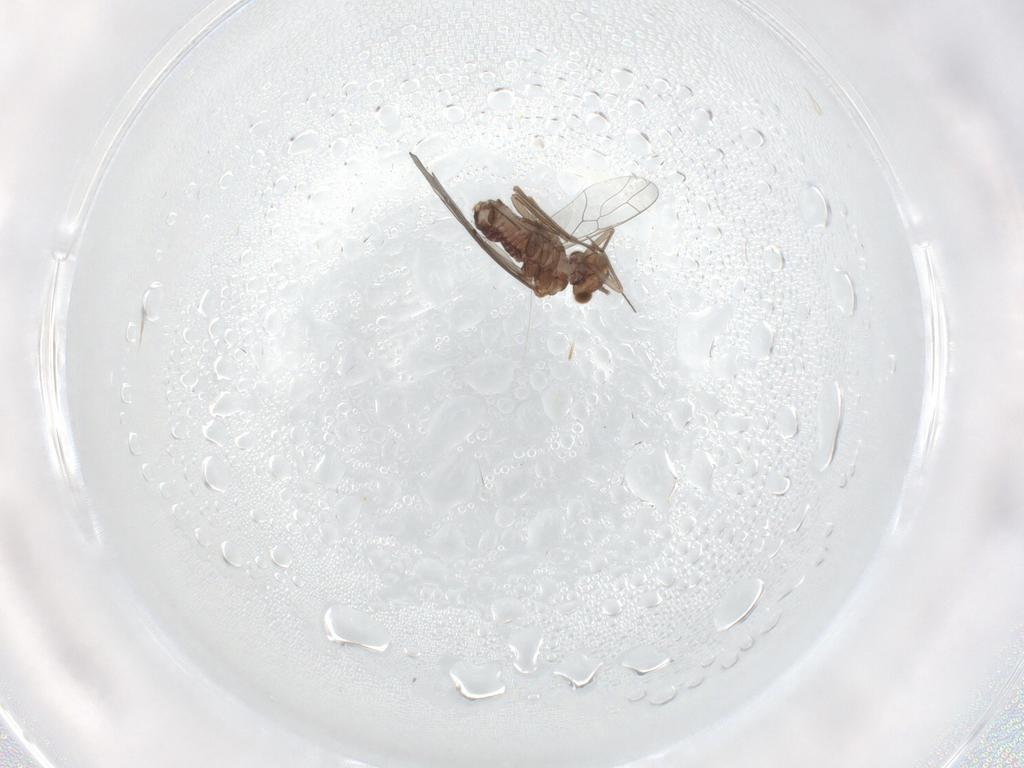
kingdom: Animalia
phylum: Arthropoda
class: Insecta
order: Psocodea
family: Lachesillidae
